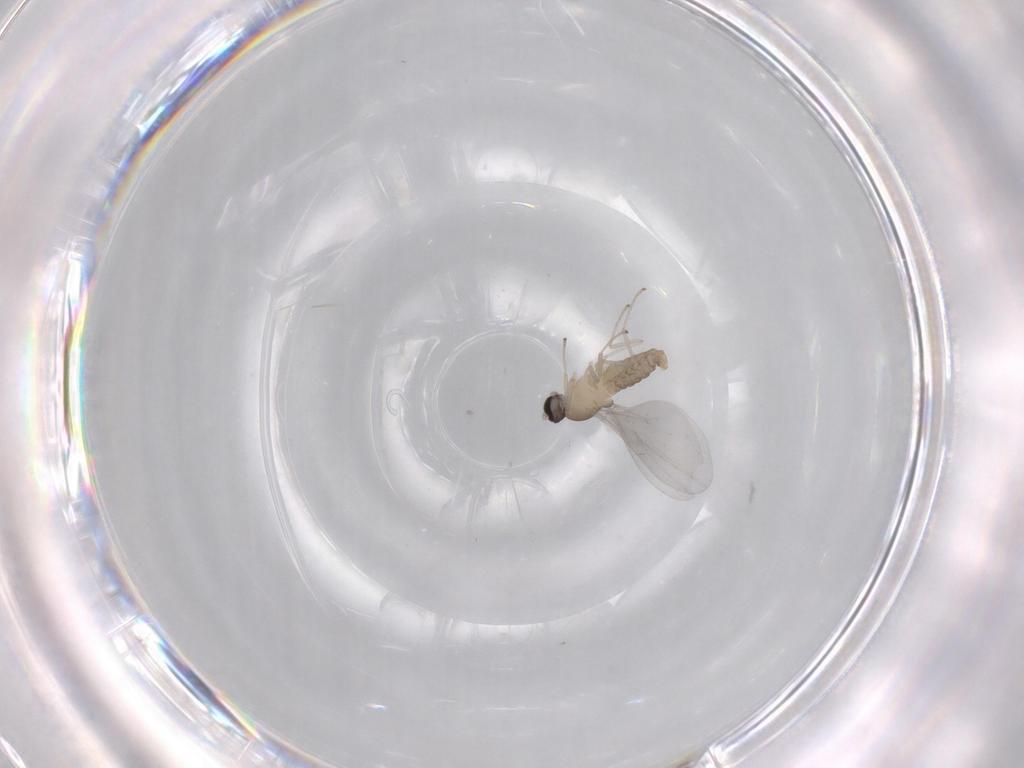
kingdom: Animalia
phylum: Arthropoda
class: Insecta
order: Diptera
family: Cecidomyiidae
